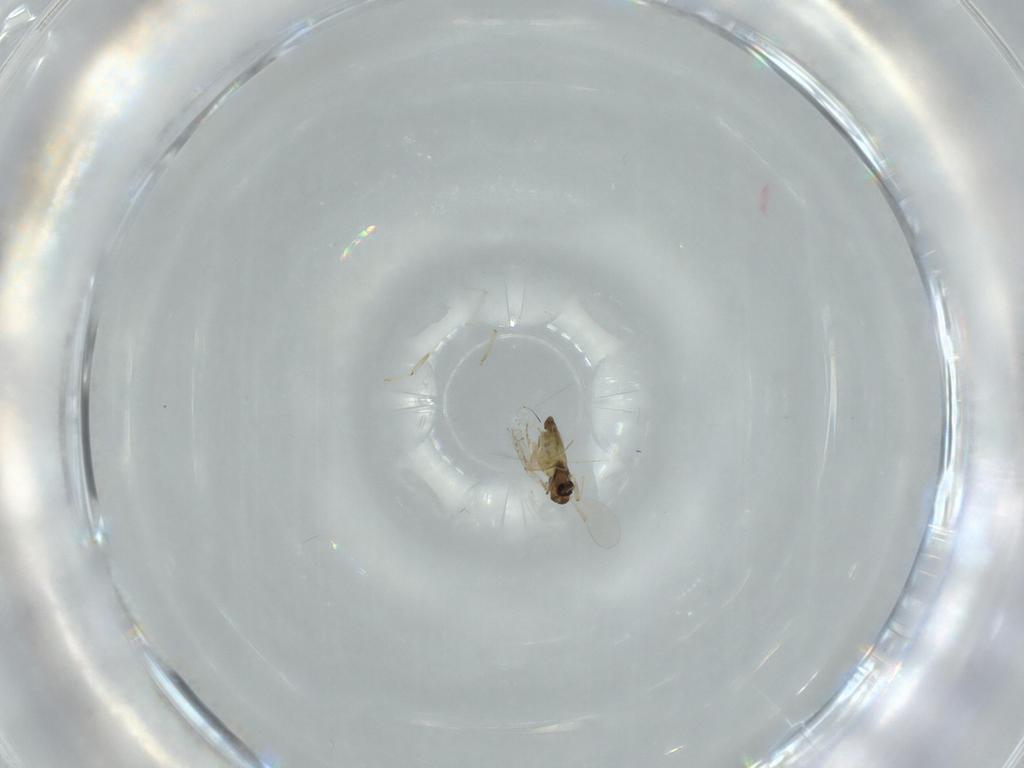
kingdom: Animalia
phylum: Arthropoda
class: Insecta
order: Diptera
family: Chironomidae
